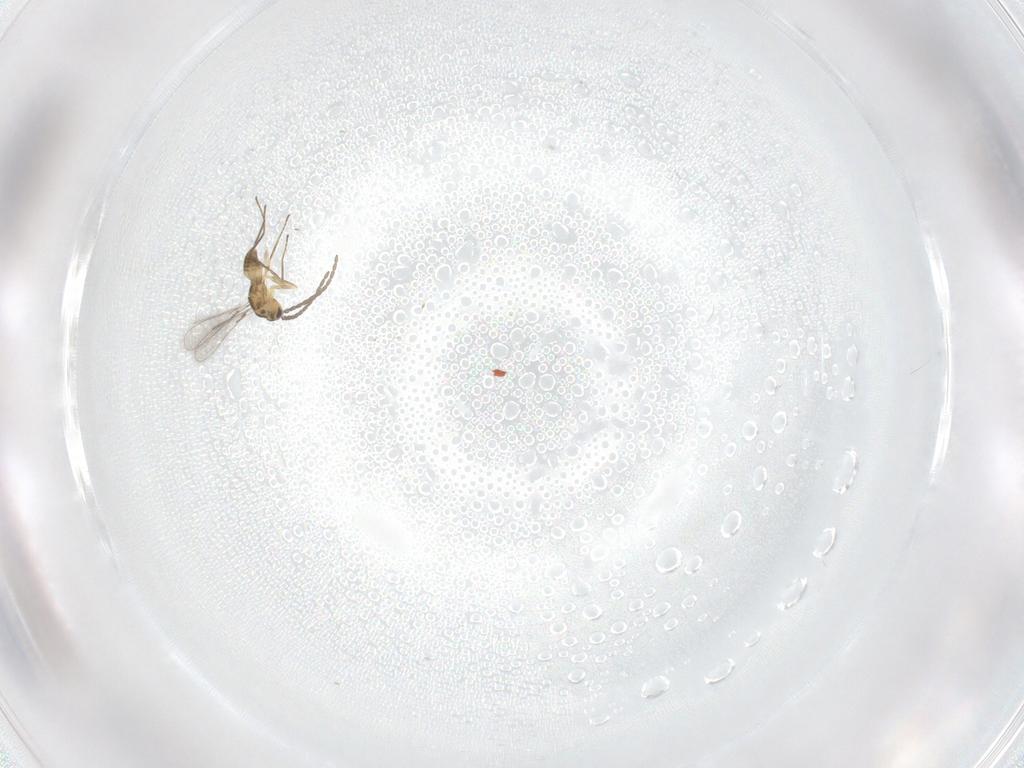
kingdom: Animalia
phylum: Arthropoda
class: Insecta
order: Hymenoptera
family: Mymaridae
